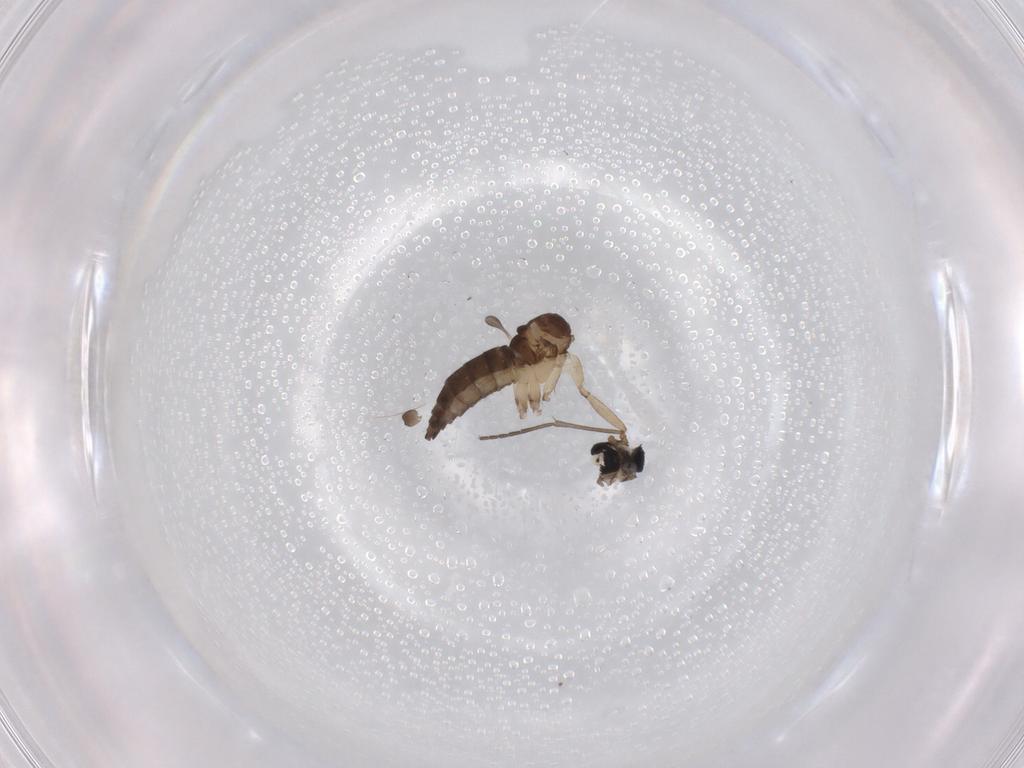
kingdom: Animalia
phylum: Arthropoda
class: Insecta
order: Diptera
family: Sciaridae
